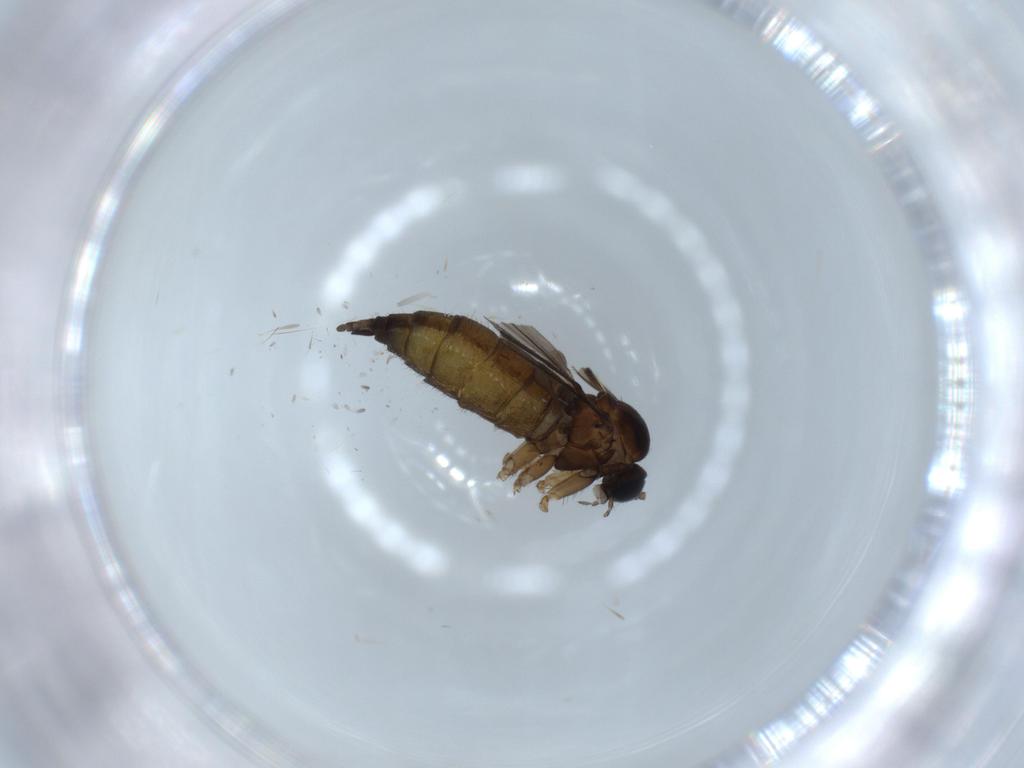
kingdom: Animalia
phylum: Arthropoda
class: Insecta
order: Diptera
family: Sciaridae
